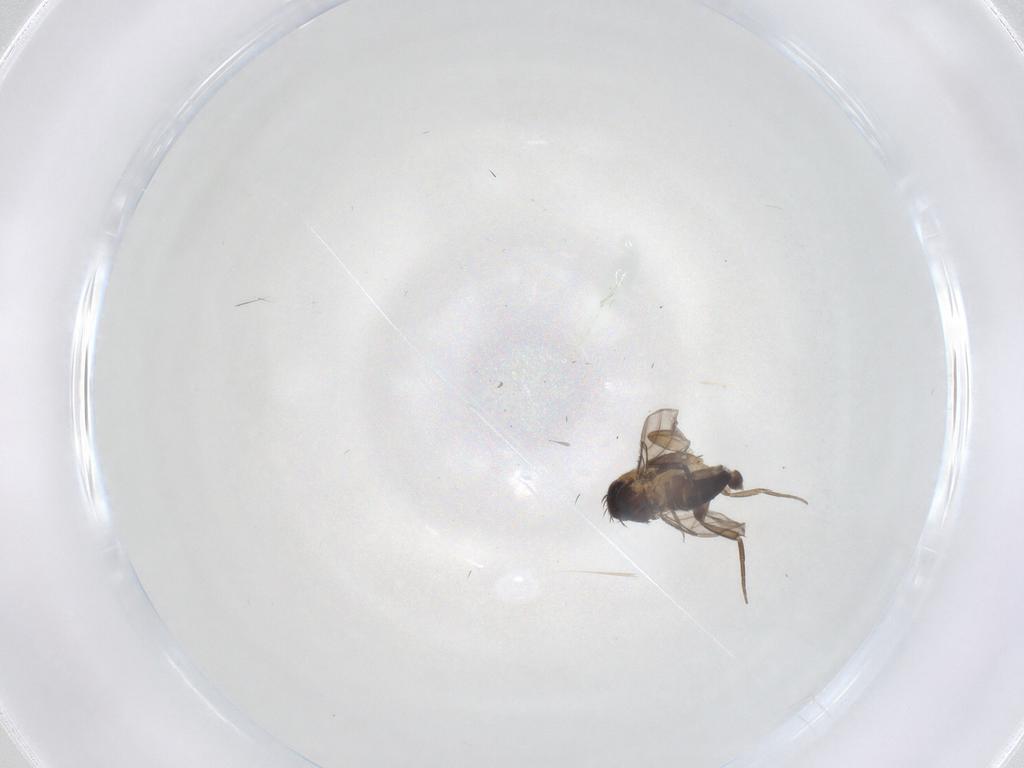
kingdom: Animalia
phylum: Arthropoda
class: Insecta
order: Diptera
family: Phoridae
